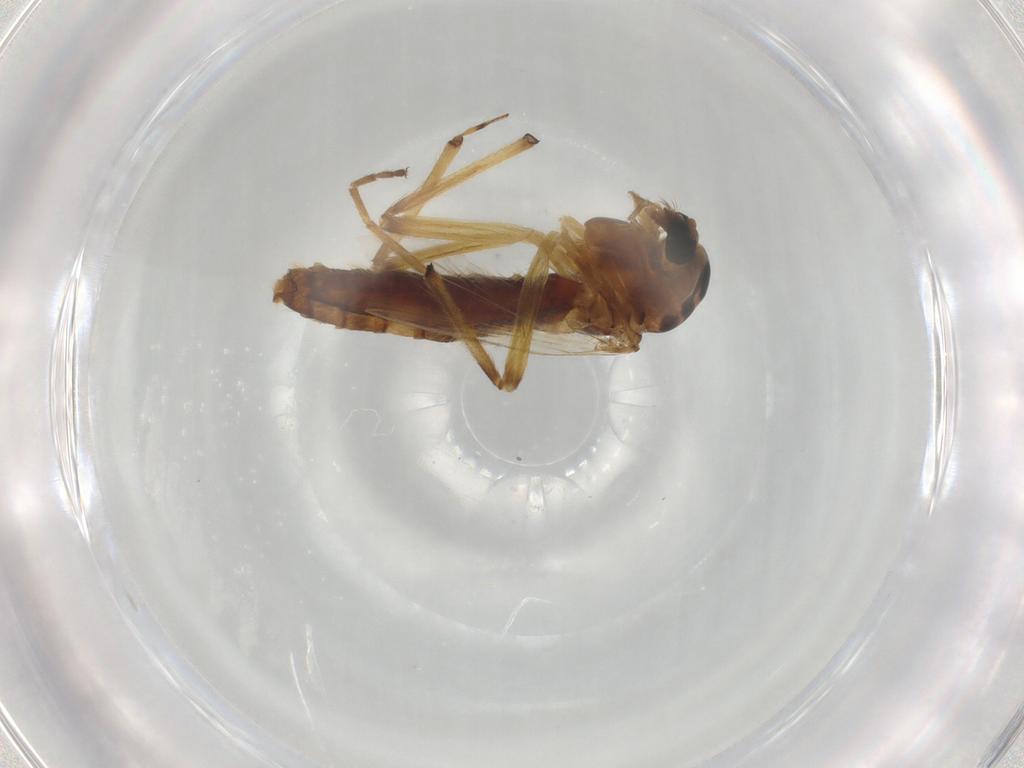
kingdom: Animalia
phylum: Arthropoda
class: Insecta
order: Diptera
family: Chironomidae
